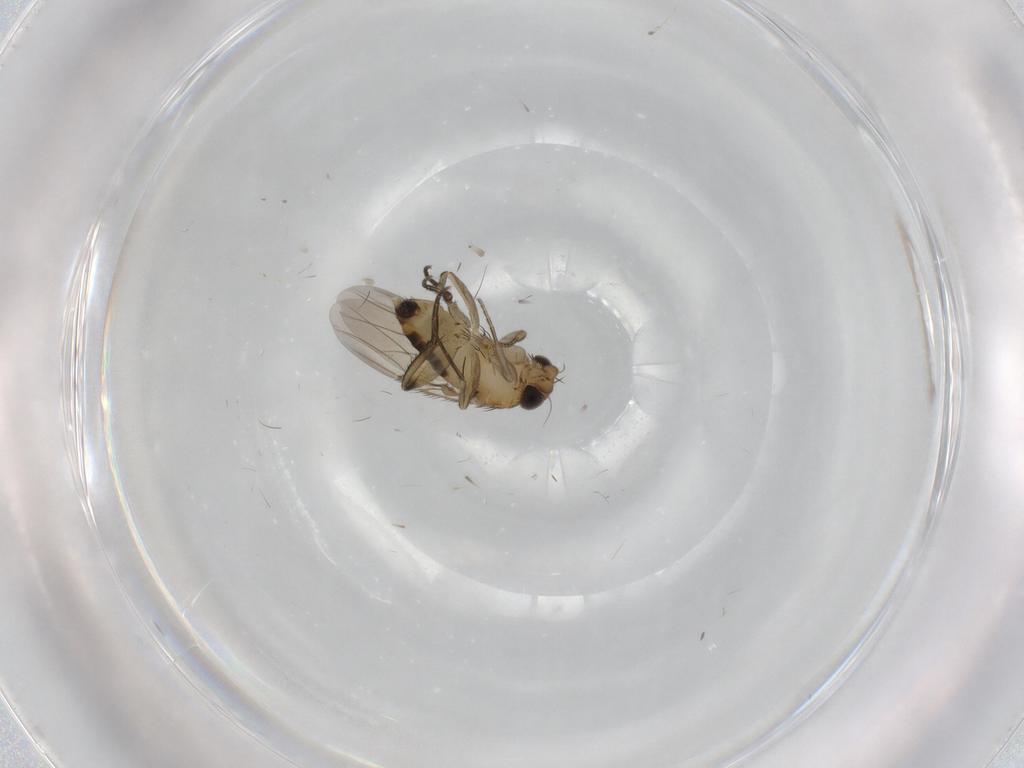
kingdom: Animalia
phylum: Arthropoda
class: Insecta
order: Diptera
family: Phoridae
